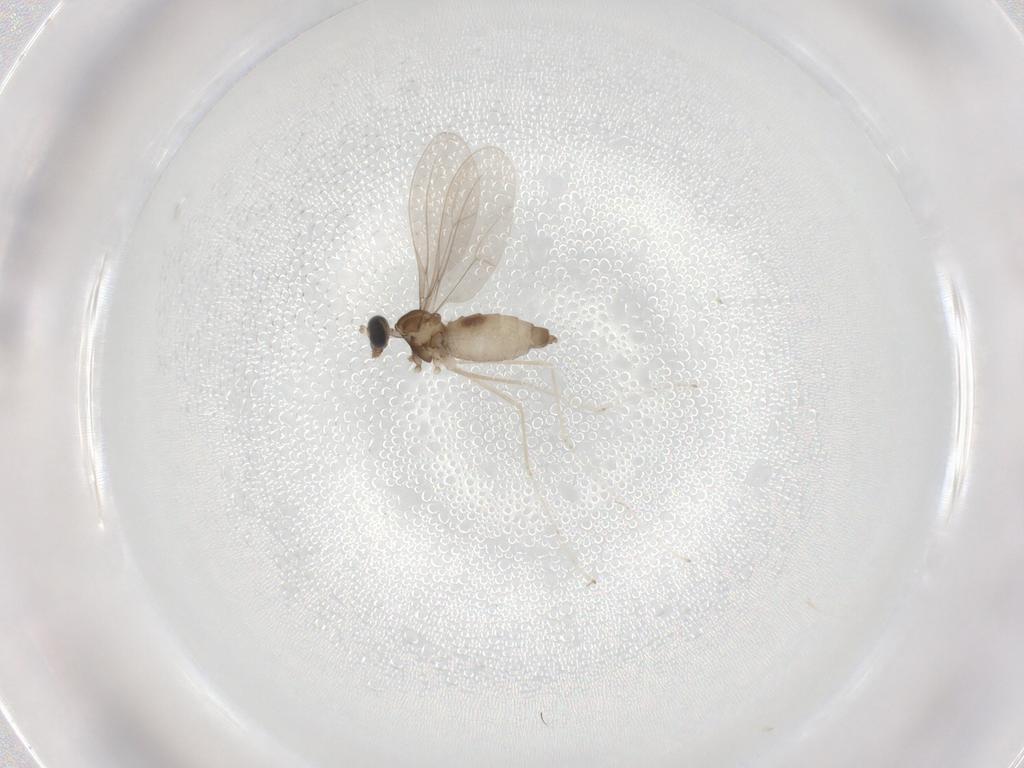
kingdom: Animalia
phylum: Arthropoda
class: Insecta
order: Diptera
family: Cecidomyiidae
